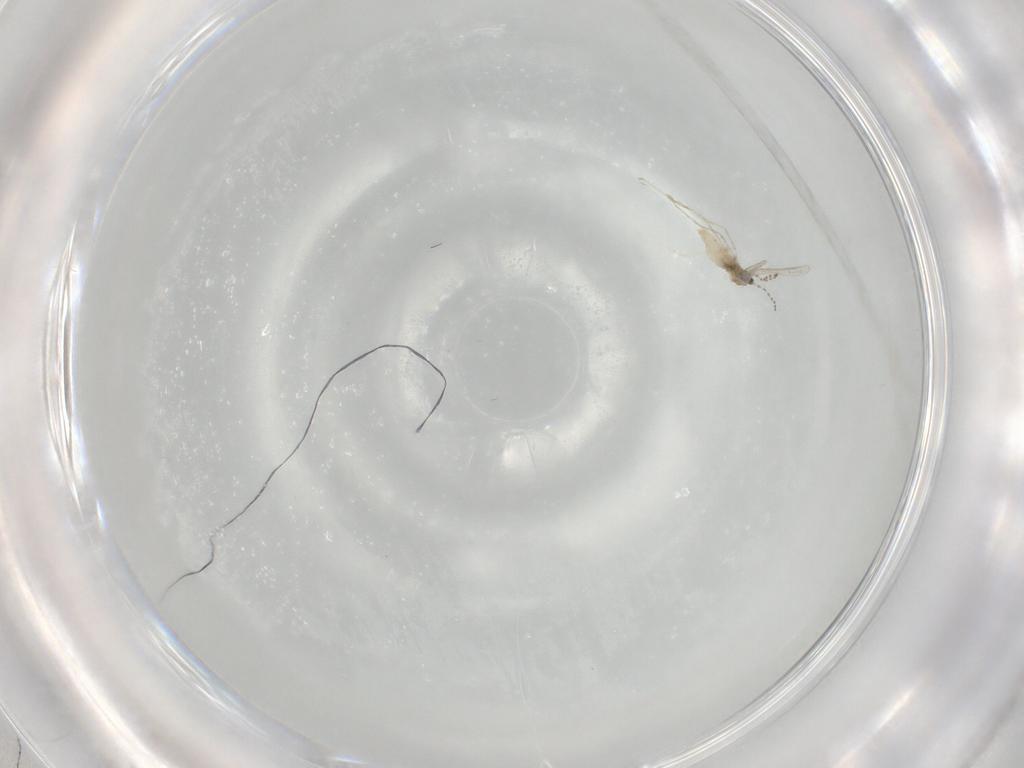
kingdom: Animalia
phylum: Arthropoda
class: Insecta
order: Diptera
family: Cecidomyiidae
